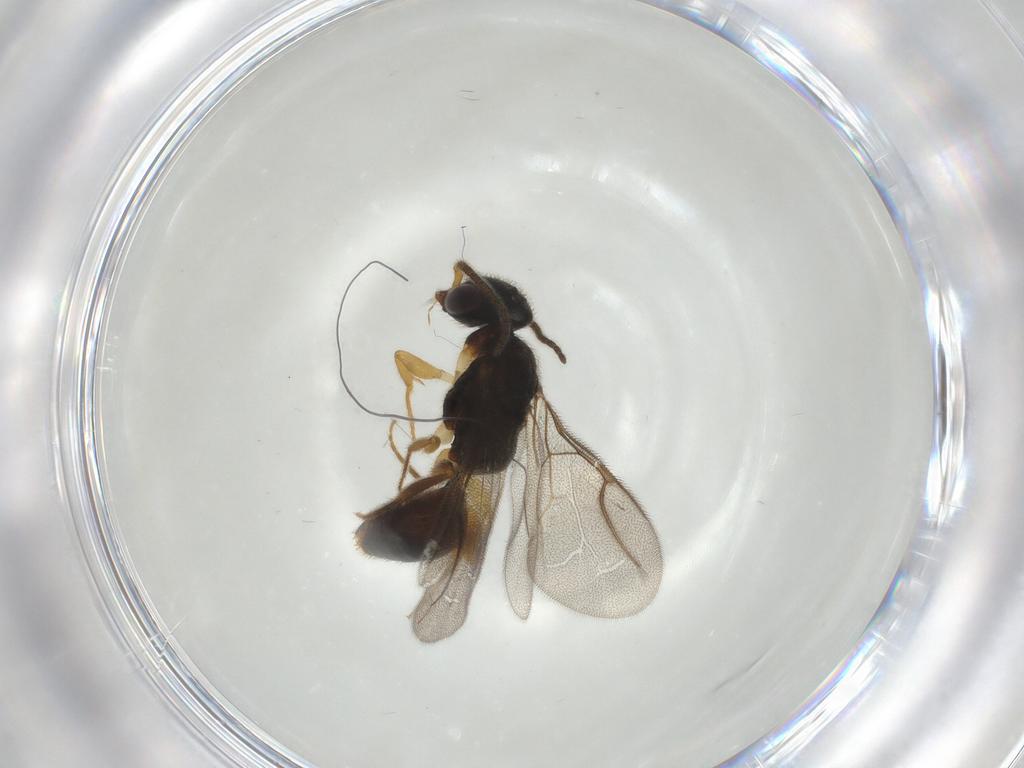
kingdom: Animalia
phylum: Arthropoda
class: Insecta
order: Hymenoptera
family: Bethylidae
